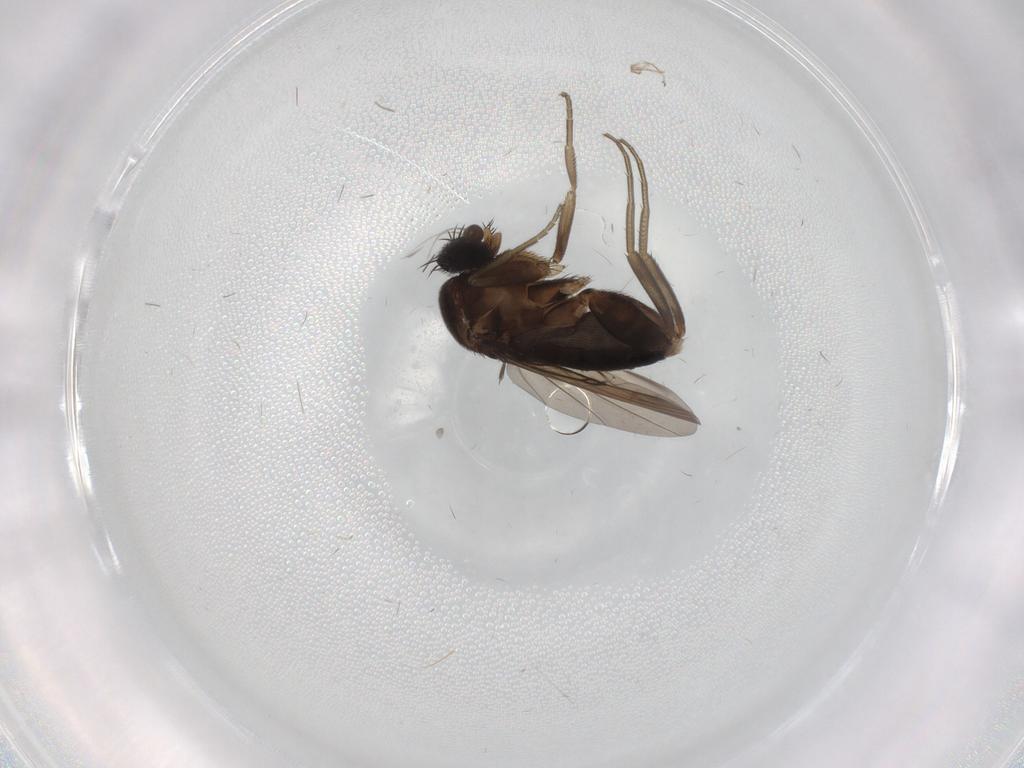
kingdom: Animalia
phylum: Arthropoda
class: Insecta
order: Diptera
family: Phoridae
